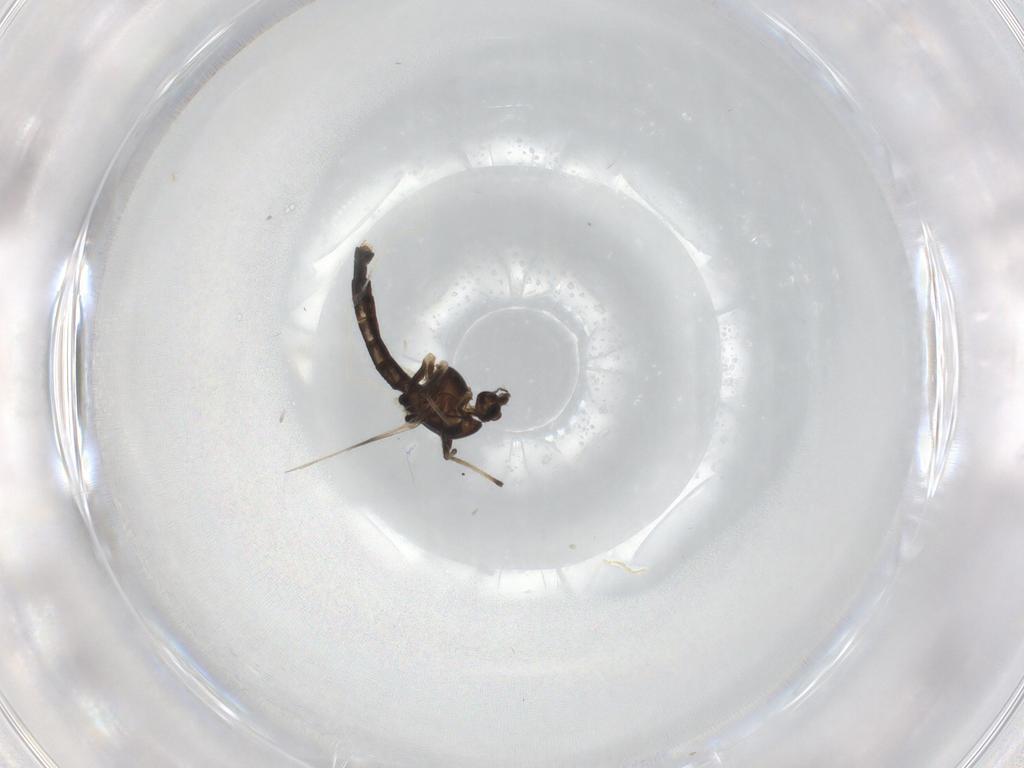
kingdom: Animalia
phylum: Arthropoda
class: Insecta
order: Diptera
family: Chironomidae
